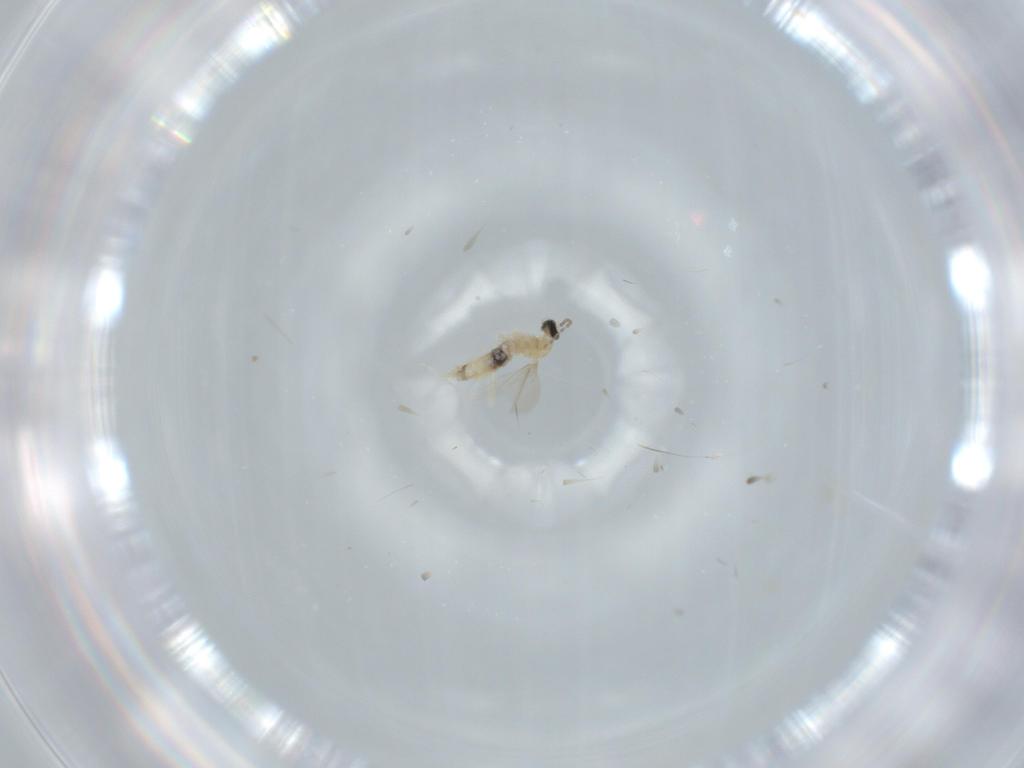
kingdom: Animalia
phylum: Arthropoda
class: Insecta
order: Diptera
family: Cecidomyiidae
